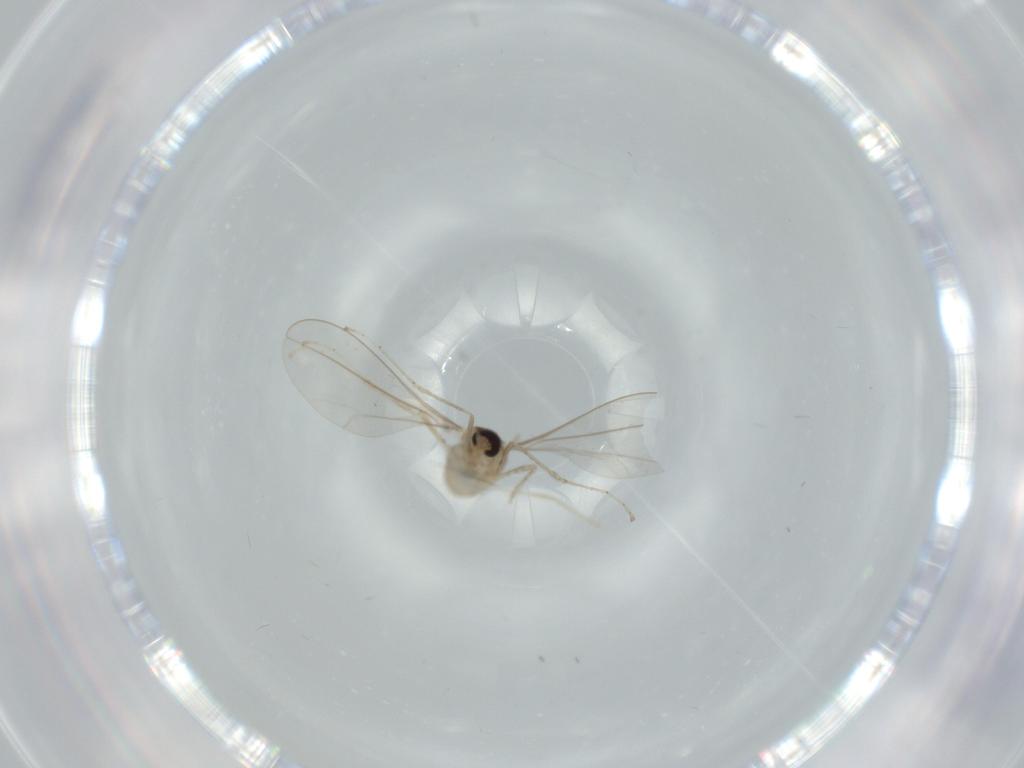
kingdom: Animalia
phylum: Arthropoda
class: Insecta
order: Diptera
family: Cecidomyiidae
